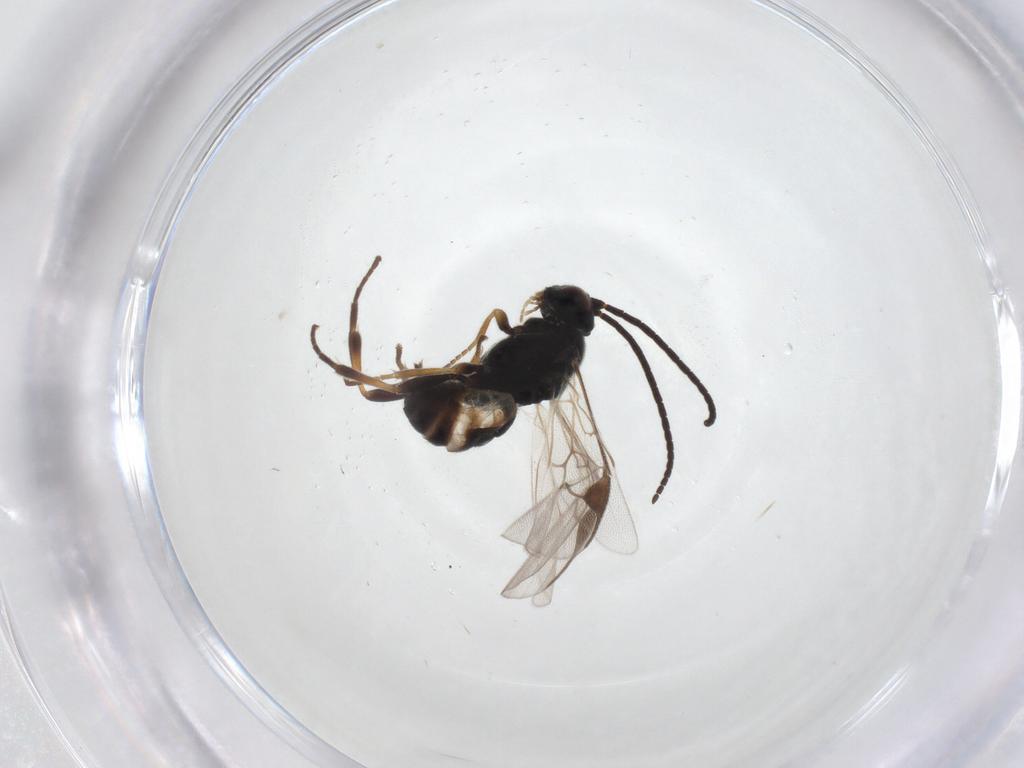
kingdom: Animalia
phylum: Arthropoda
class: Insecta
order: Hymenoptera
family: Braconidae
